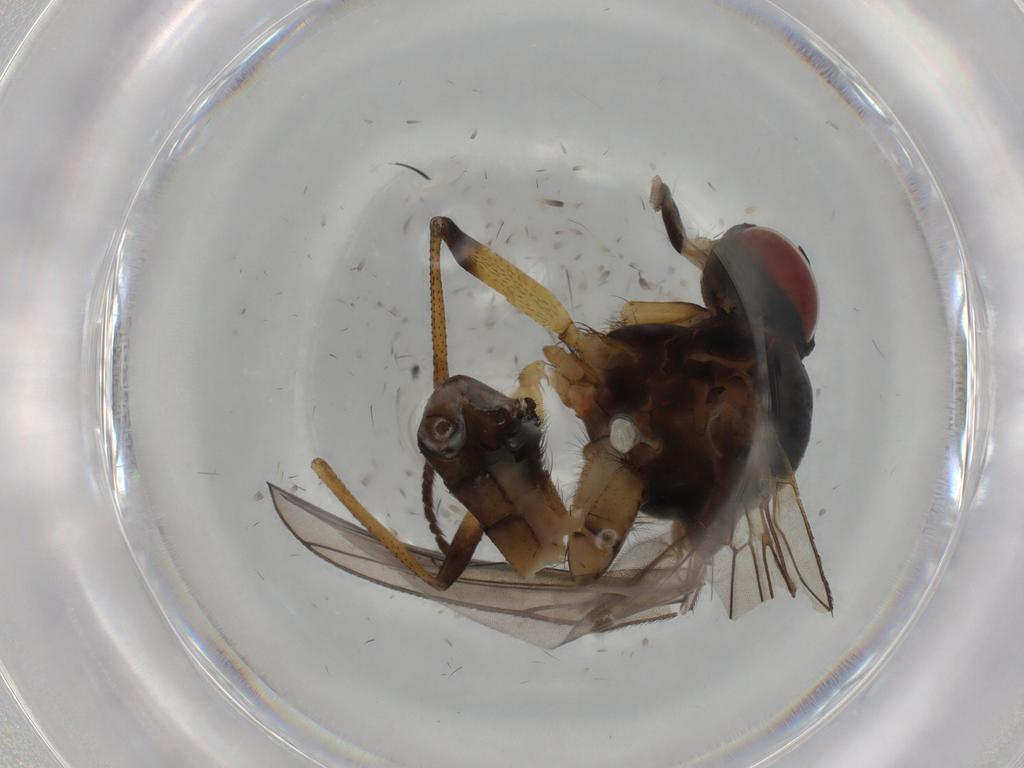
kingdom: Animalia
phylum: Arthropoda
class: Insecta
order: Diptera
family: Anthomyiidae
